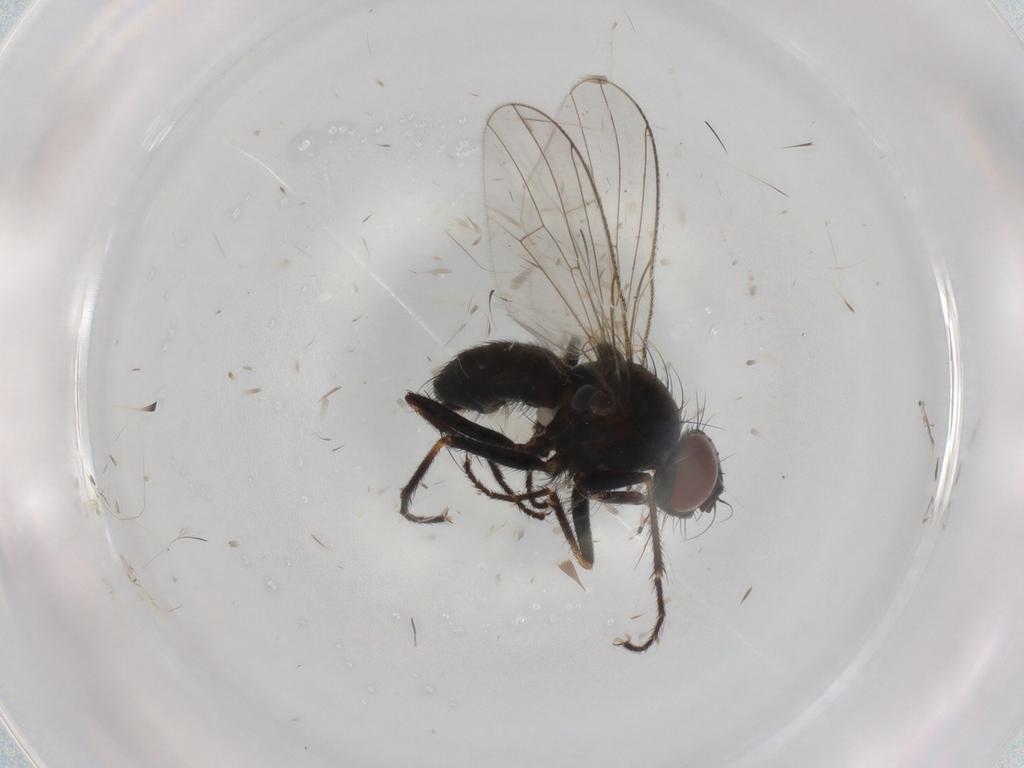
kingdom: Animalia
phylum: Arthropoda
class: Insecta
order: Diptera
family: Muscidae
